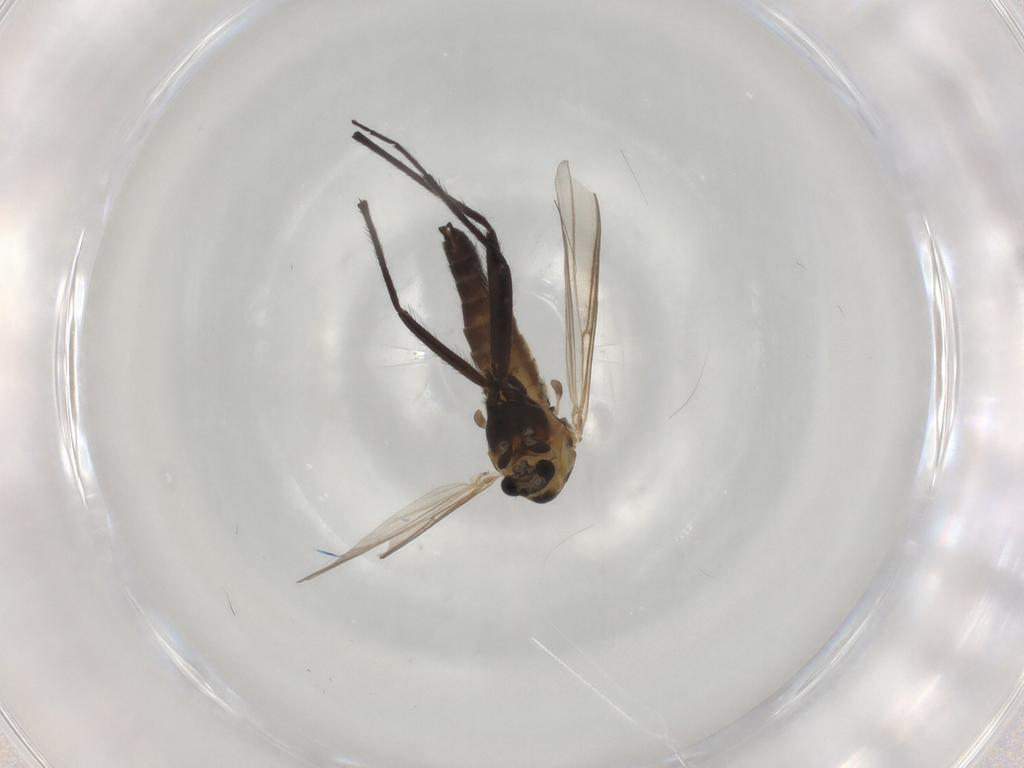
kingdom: Animalia
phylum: Arthropoda
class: Insecta
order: Diptera
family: Chironomidae
